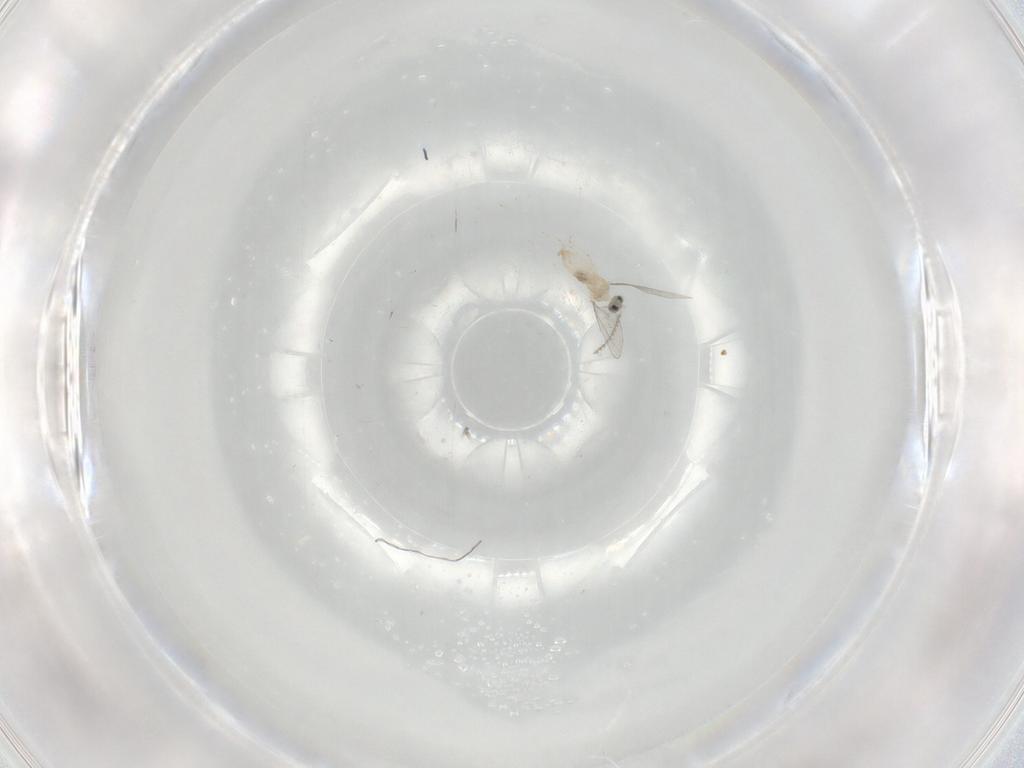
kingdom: Animalia
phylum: Arthropoda
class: Insecta
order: Diptera
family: Cecidomyiidae
